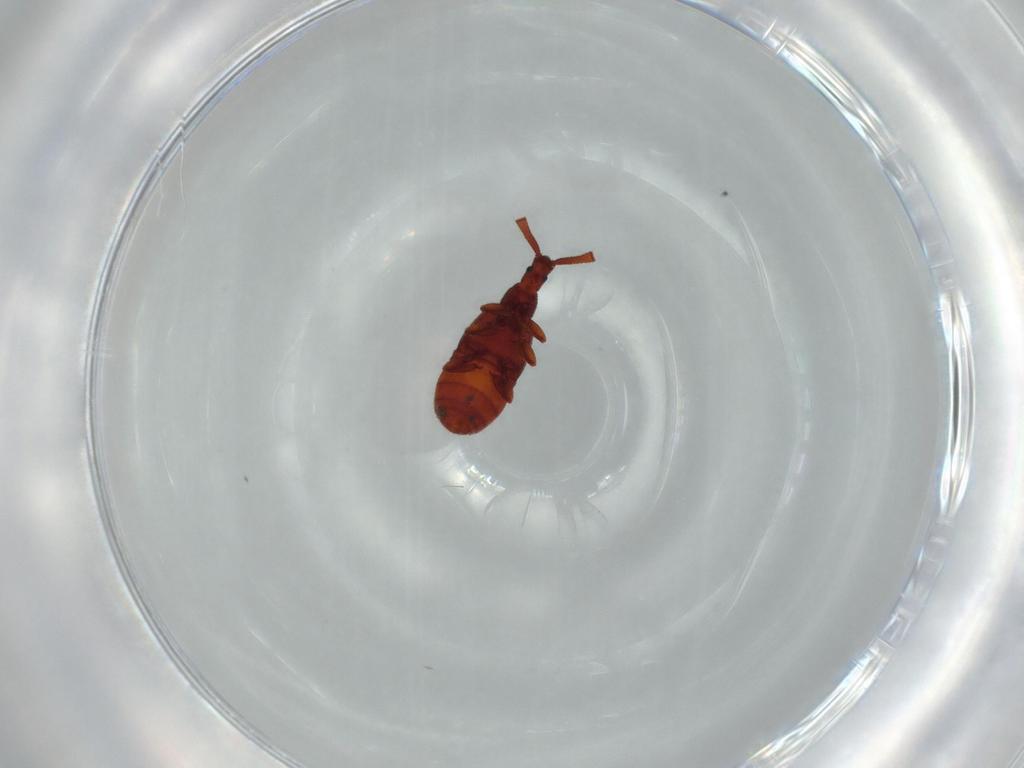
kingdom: Animalia
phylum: Arthropoda
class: Insecta
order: Coleoptera
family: Staphylinidae
